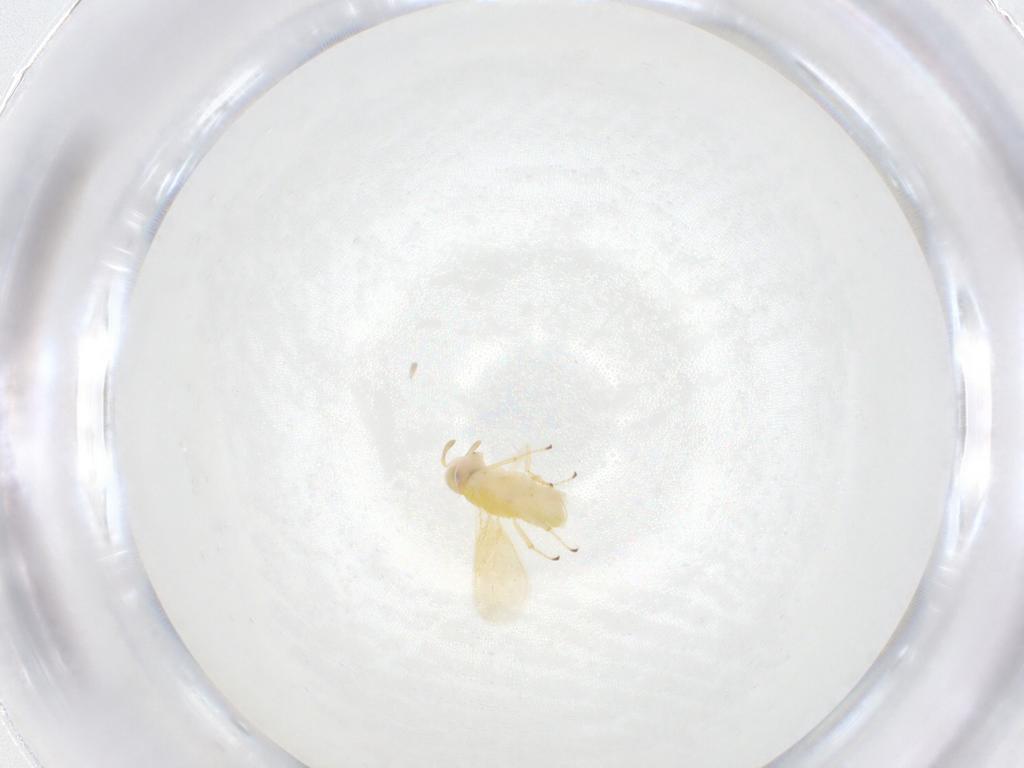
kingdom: Animalia
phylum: Arthropoda
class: Insecta
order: Hymenoptera
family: Aphelinidae
